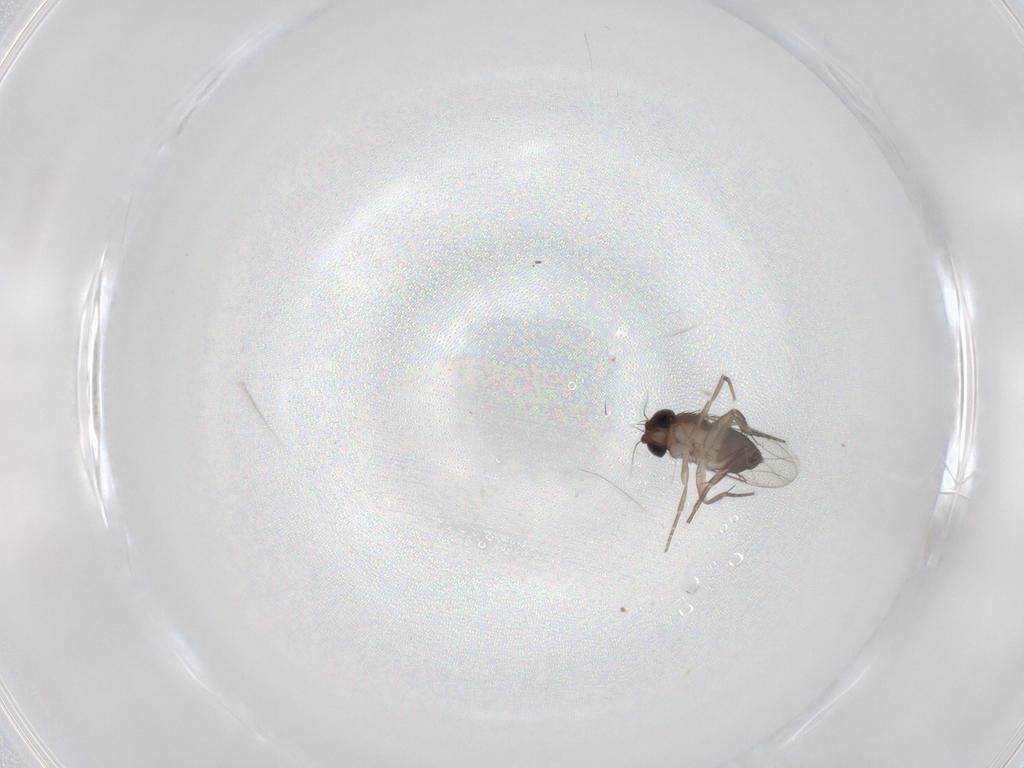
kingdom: Animalia
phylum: Arthropoda
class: Insecta
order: Diptera
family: Phoridae
